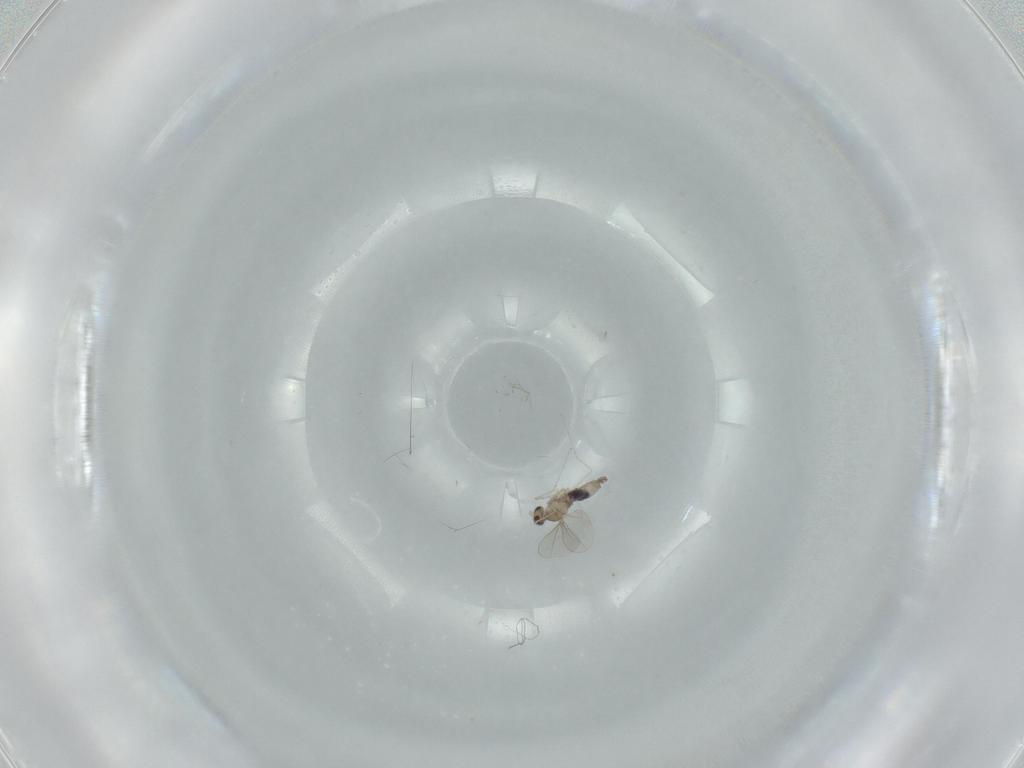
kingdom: Animalia
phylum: Arthropoda
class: Insecta
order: Diptera
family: Cecidomyiidae
